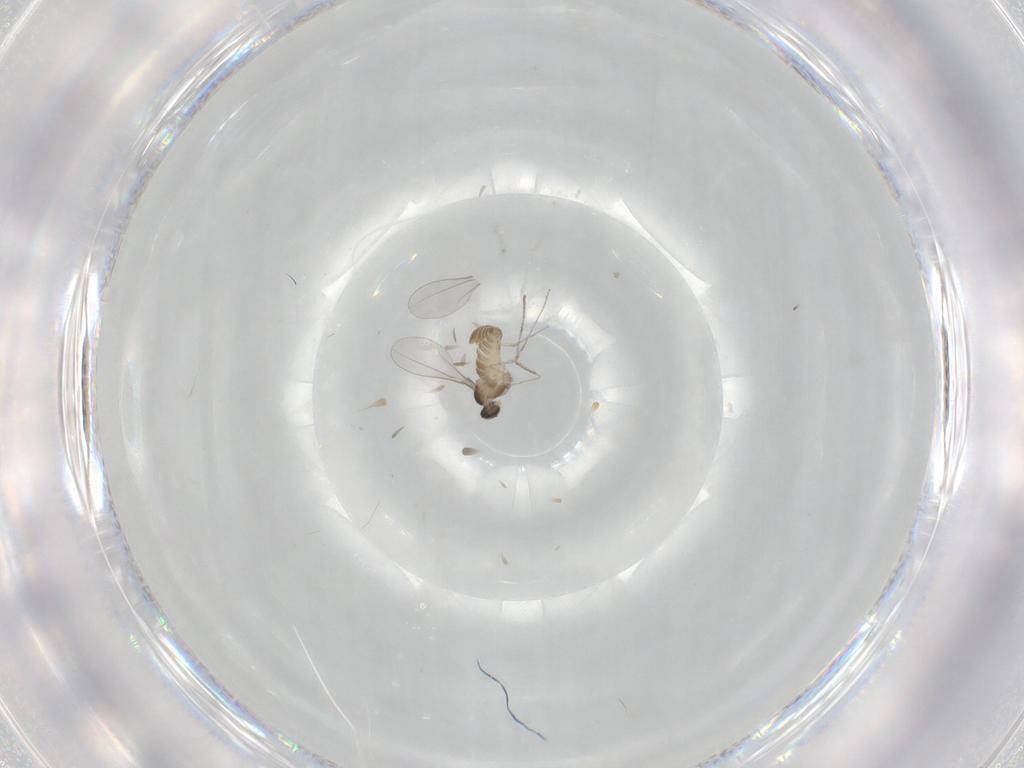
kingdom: Animalia
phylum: Arthropoda
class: Insecta
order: Diptera
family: Cecidomyiidae
